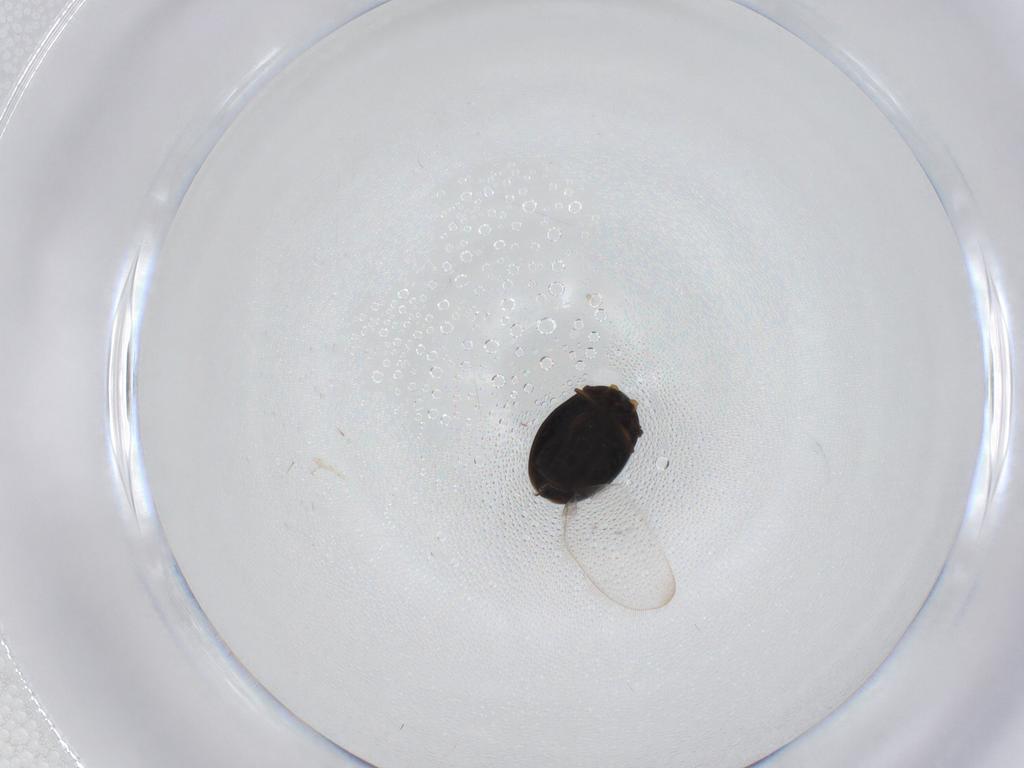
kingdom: Animalia
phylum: Arthropoda
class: Insecta
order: Coleoptera
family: Corylophidae
